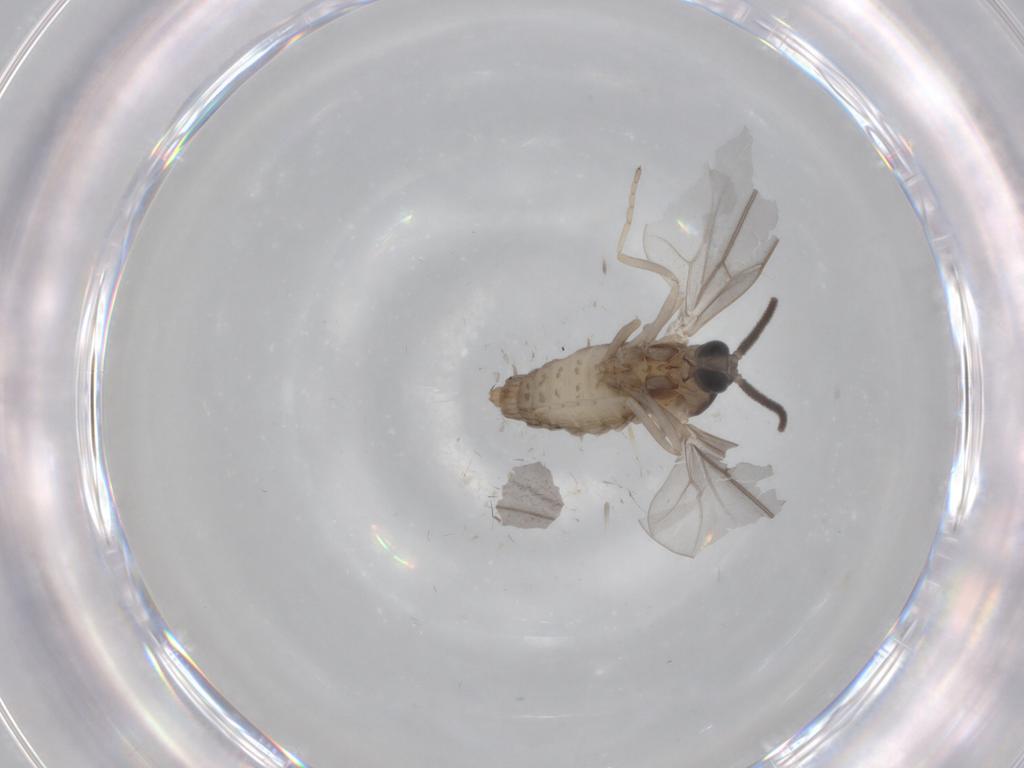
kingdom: Animalia
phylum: Arthropoda
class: Insecta
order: Diptera
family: Cecidomyiidae
